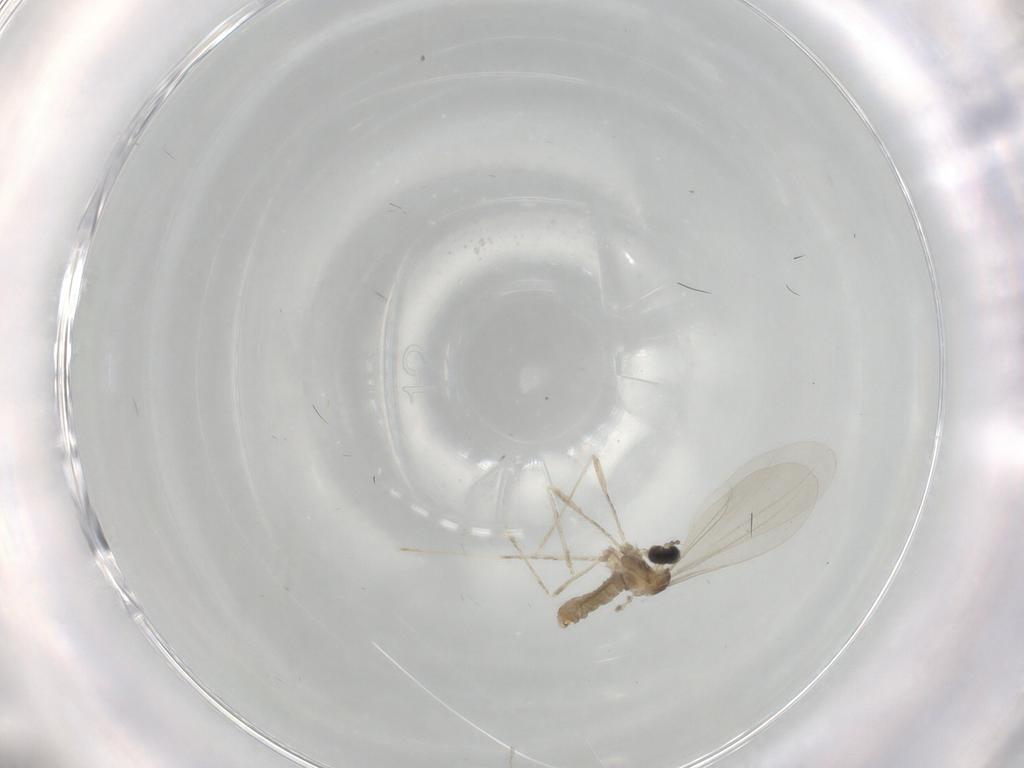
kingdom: Animalia
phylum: Arthropoda
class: Insecta
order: Diptera
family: Cecidomyiidae
